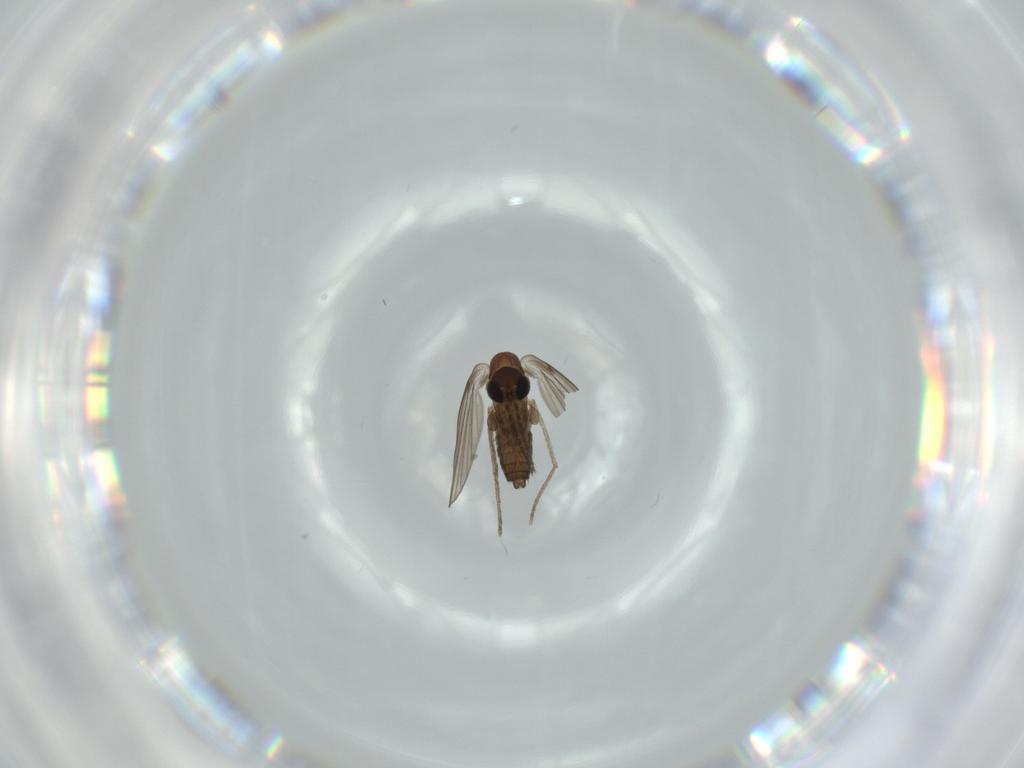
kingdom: Animalia
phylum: Arthropoda
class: Insecta
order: Diptera
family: Psychodidae
